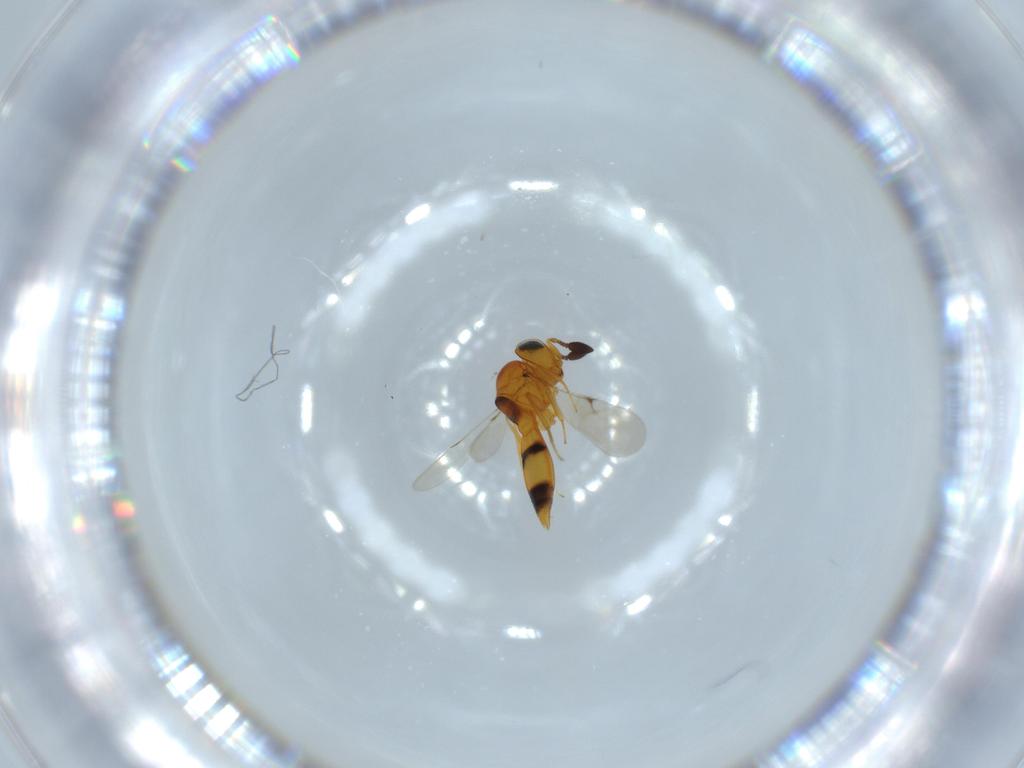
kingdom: Animalia
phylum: Arthropoda
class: Insecta
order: Hymenoptera
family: Scelionidae
